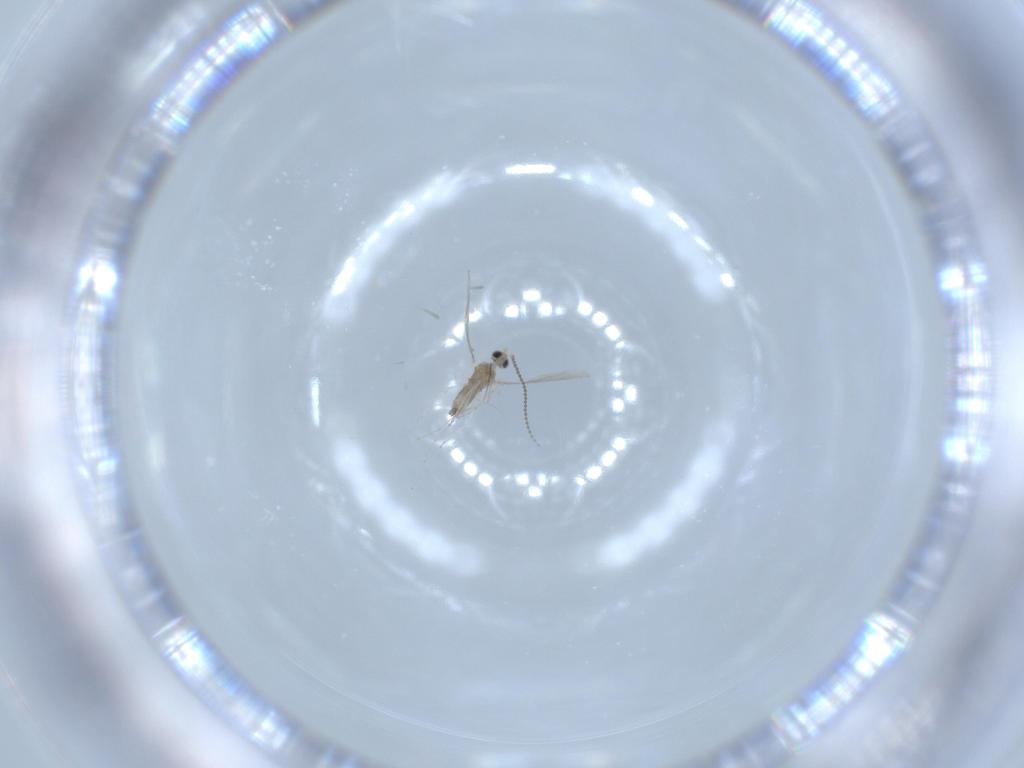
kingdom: Animalia
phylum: Arthropoda
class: Insecta
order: Diptera
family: Cecidomyiidae
